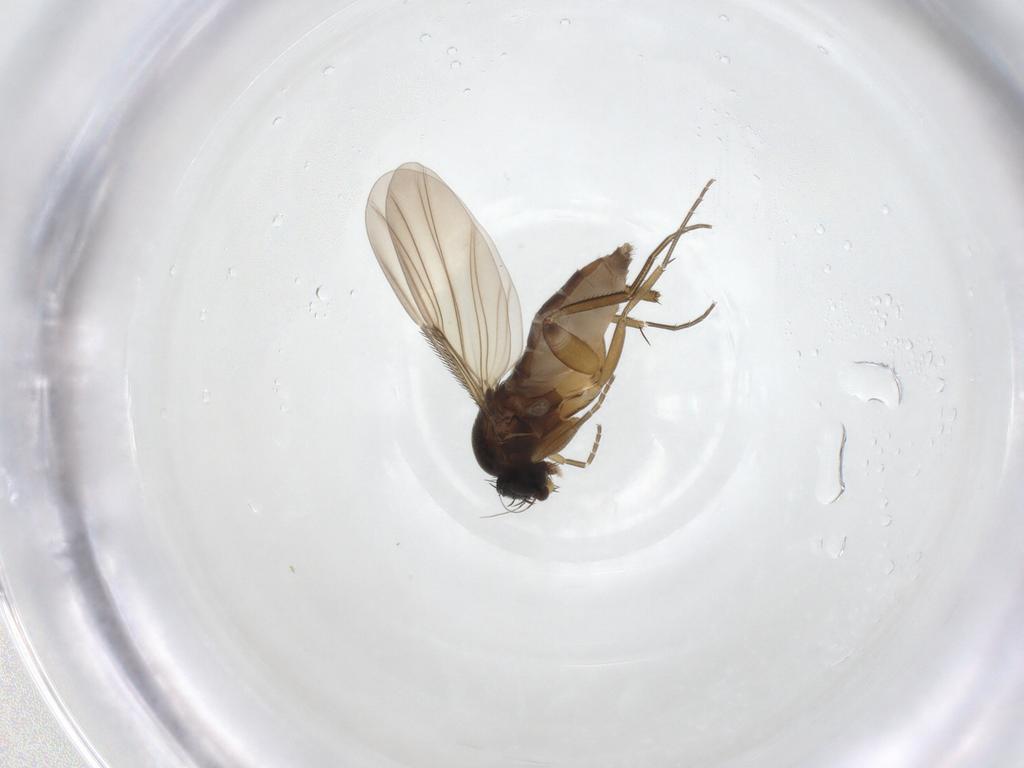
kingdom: Animalia
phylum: Arthropoda
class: Insecta
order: Diptera
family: Phoridae
